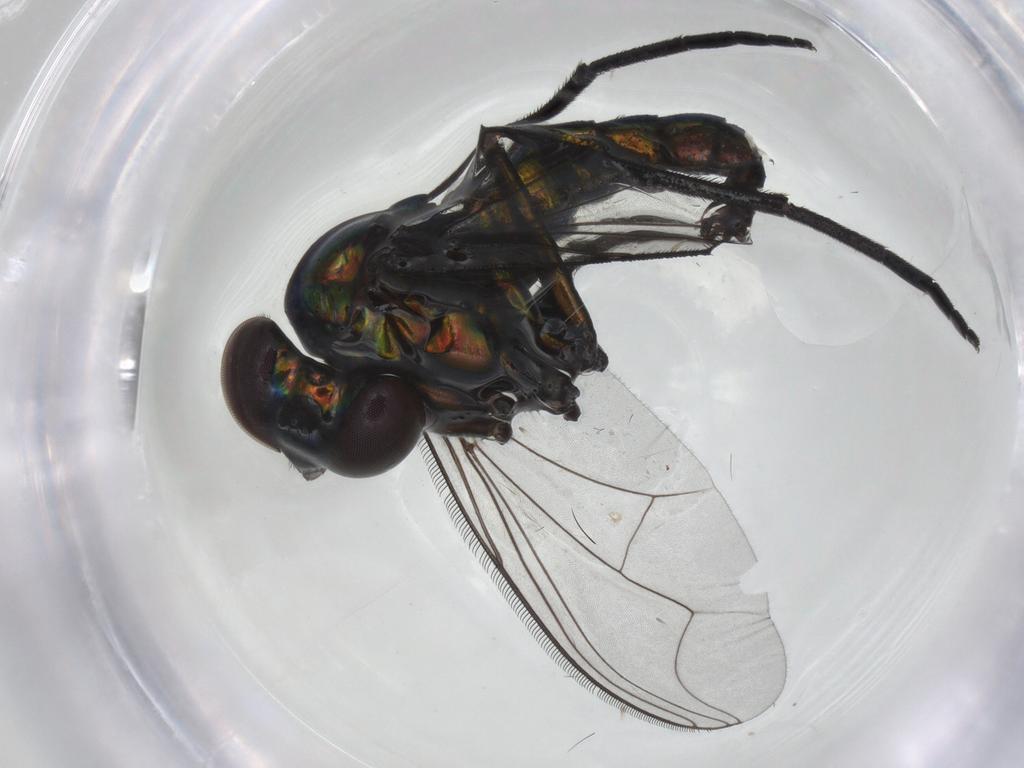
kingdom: Animalia
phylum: Arthropoda
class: Insecta
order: Diptera
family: Dolichopodidae
